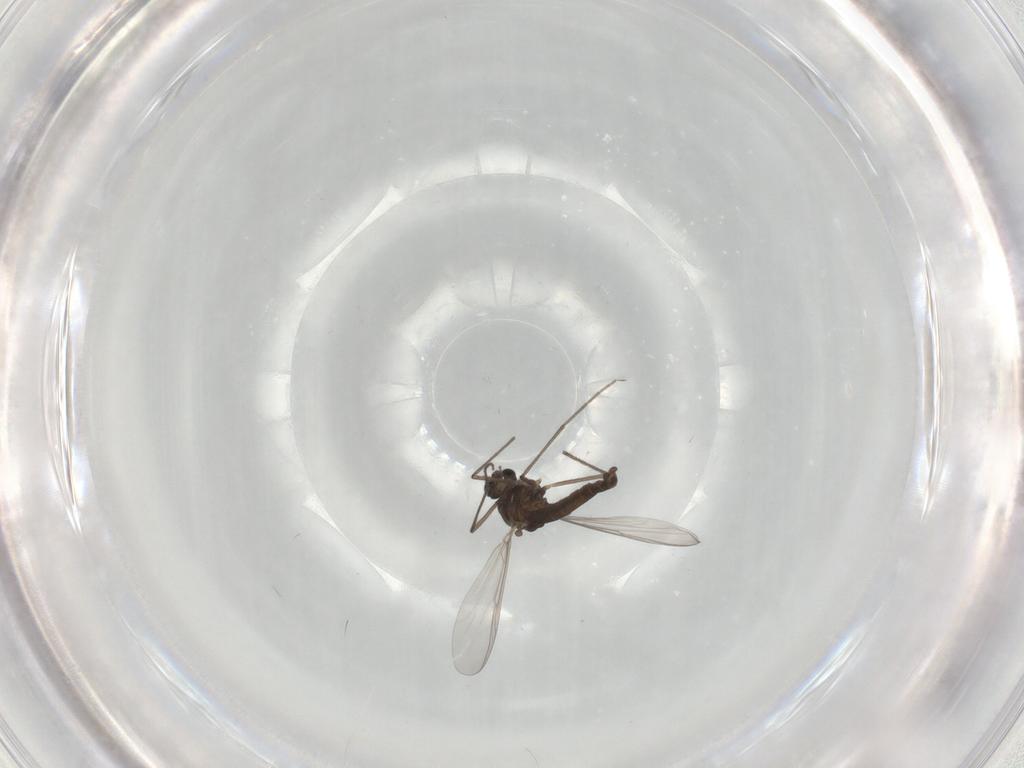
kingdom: Animalia
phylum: Arthropoda
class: Insecta
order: Diptera
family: Chironomidae
